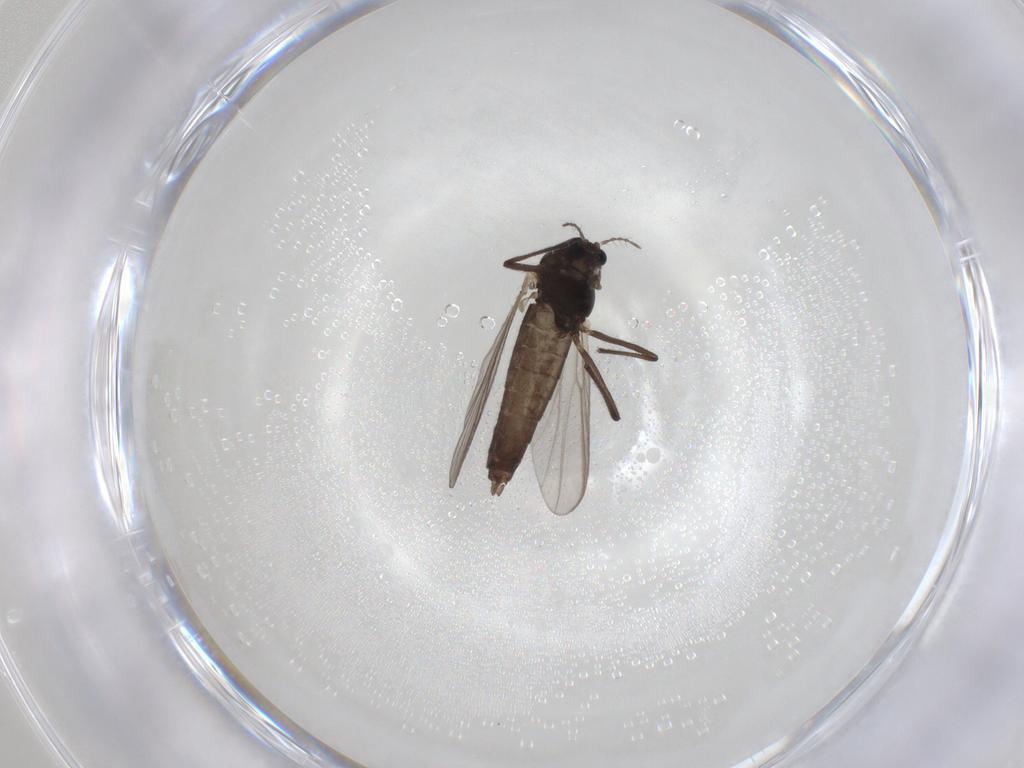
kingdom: Animalia
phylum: Arthropoda
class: Insecta
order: Diptera
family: Chironomidae
